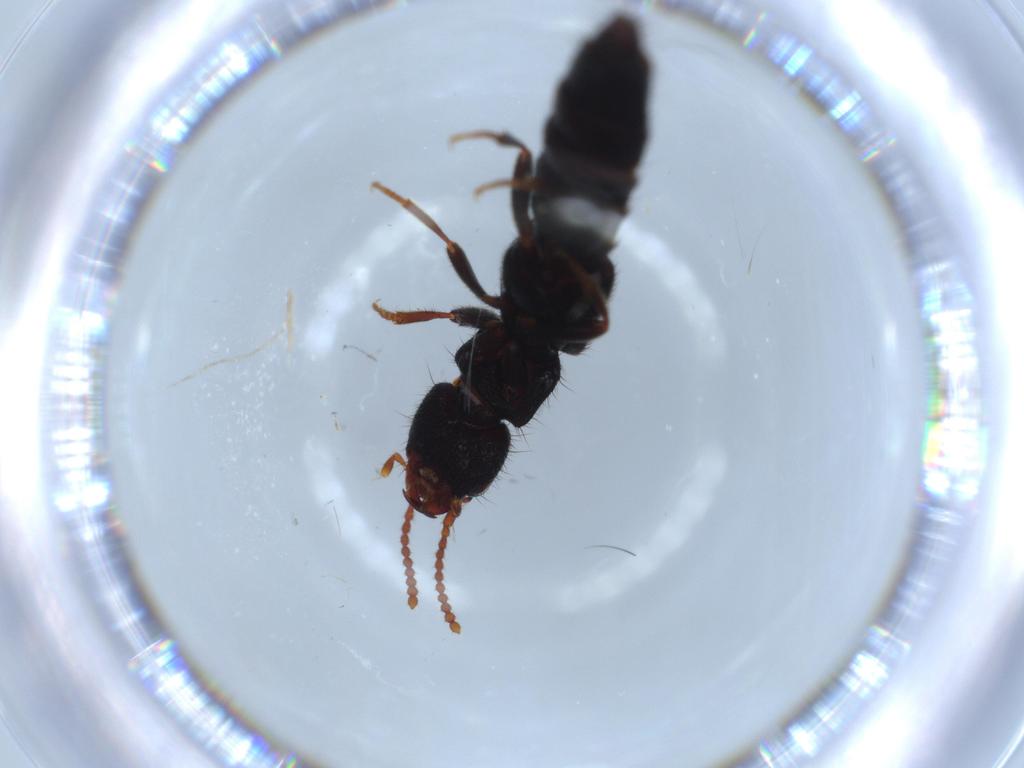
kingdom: Animalia
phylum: Arthropoda
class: Insecta
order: Coleoptera
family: Staphylinidae
